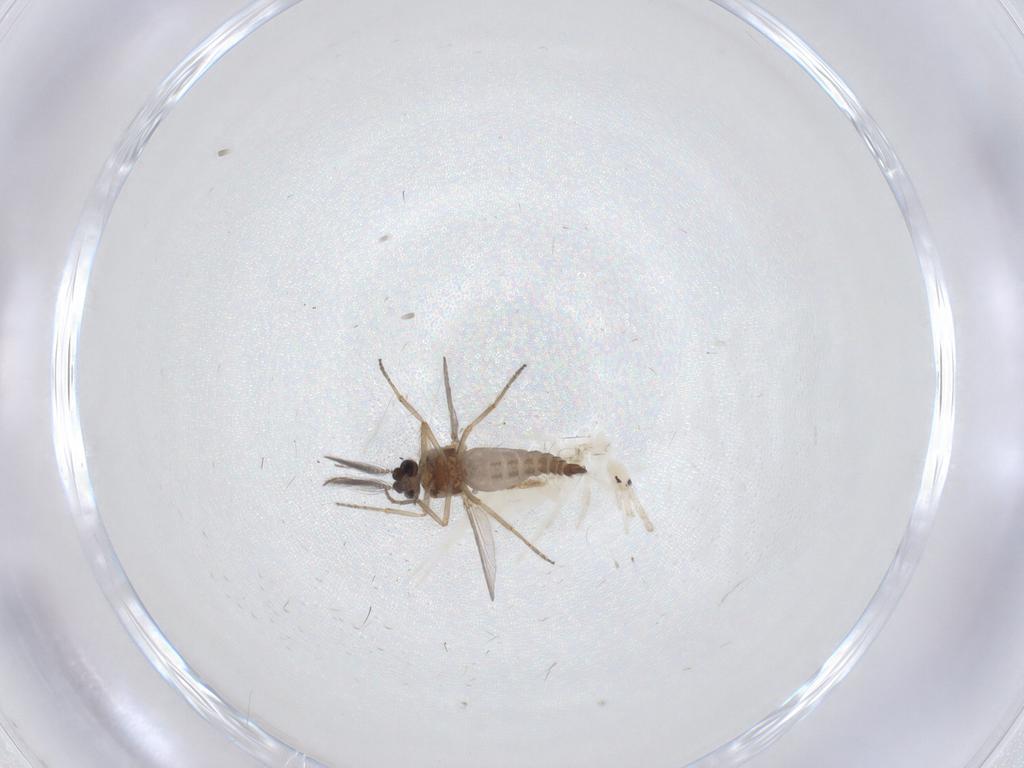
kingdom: Animalia
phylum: Arthropoda
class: Collembola
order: Entomobryomorpha
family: Entomobryidae
